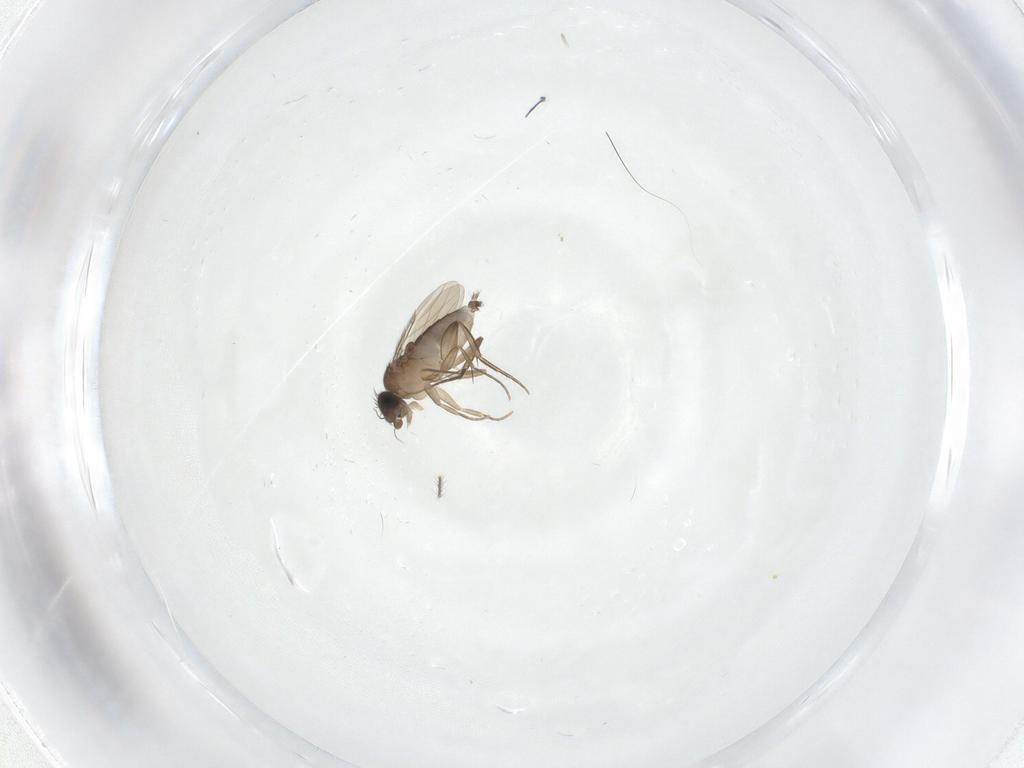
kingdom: Animalia
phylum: Arthropoda
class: Insecta
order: Diptera
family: Phoridae
